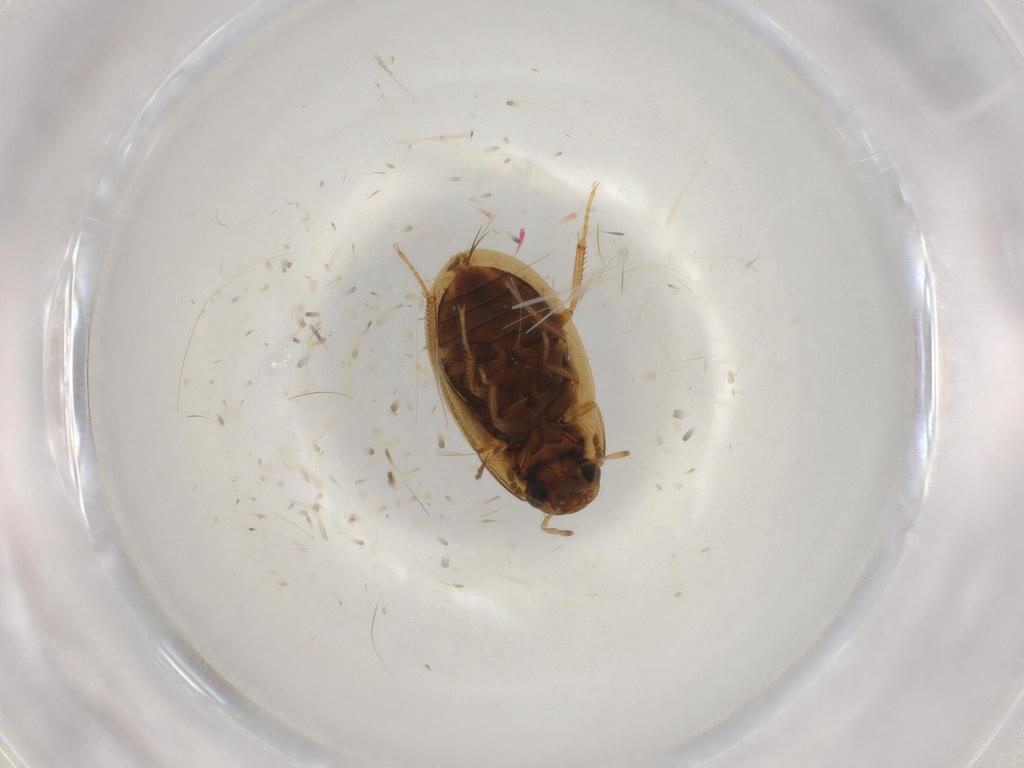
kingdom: Animalia
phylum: Arthropoda
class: Insecta
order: Coleoptera
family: Hydrophilidae
